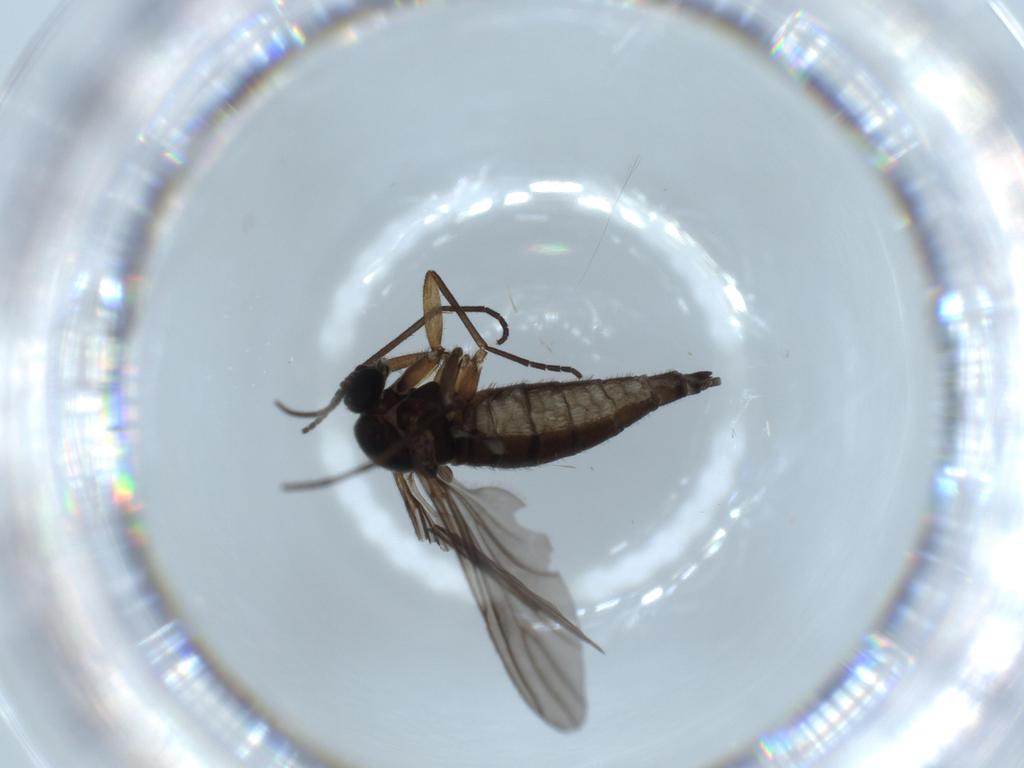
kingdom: Animalia
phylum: Arthropoda
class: Insecta
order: Diptera
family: Sciaridae
